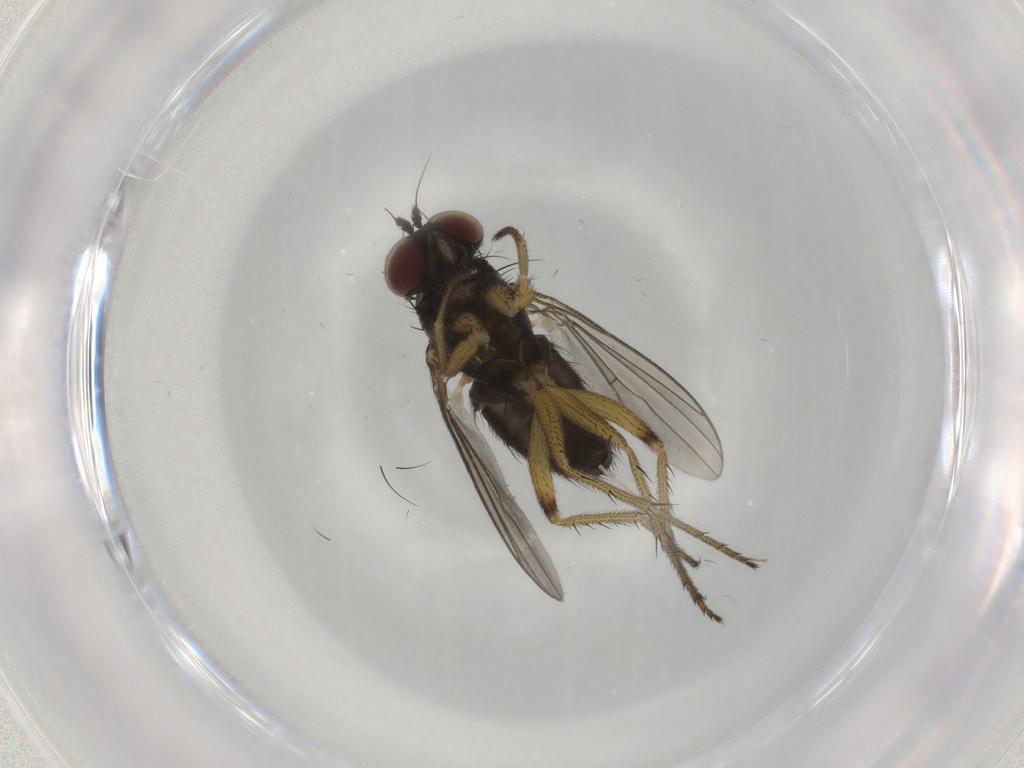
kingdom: Animalia
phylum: Arthropoda
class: Insecta
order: Diptera
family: Dolichopodidae
